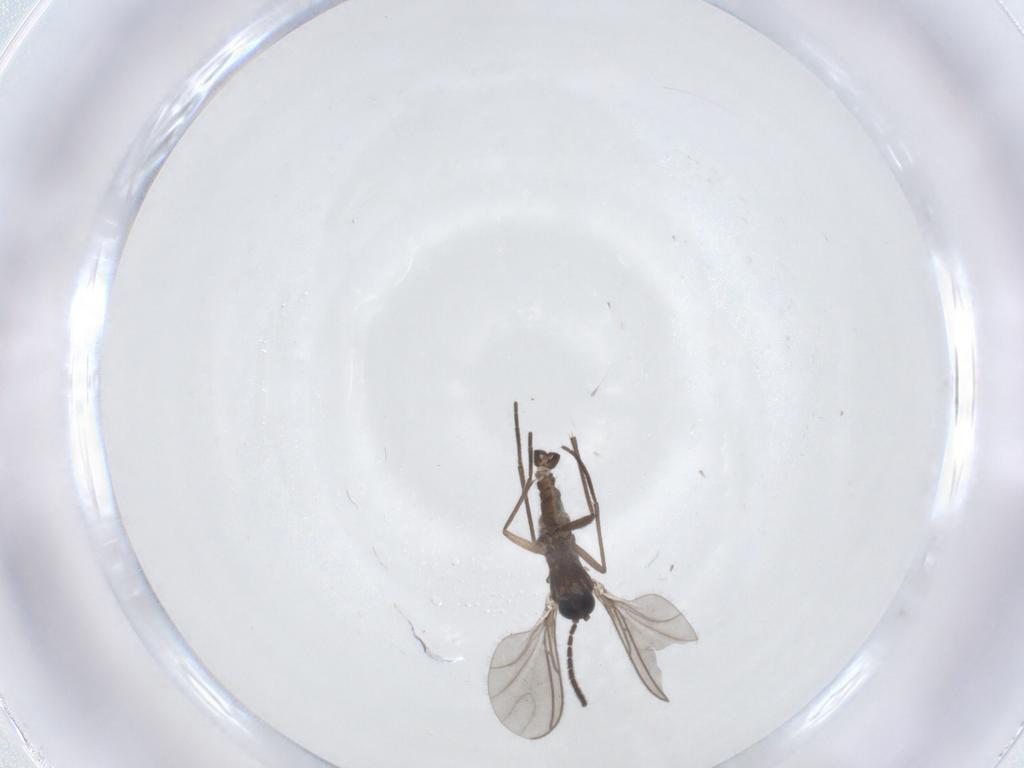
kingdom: Animalia
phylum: Arthropoda
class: Insecta
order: Diptera
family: Sciaridae
